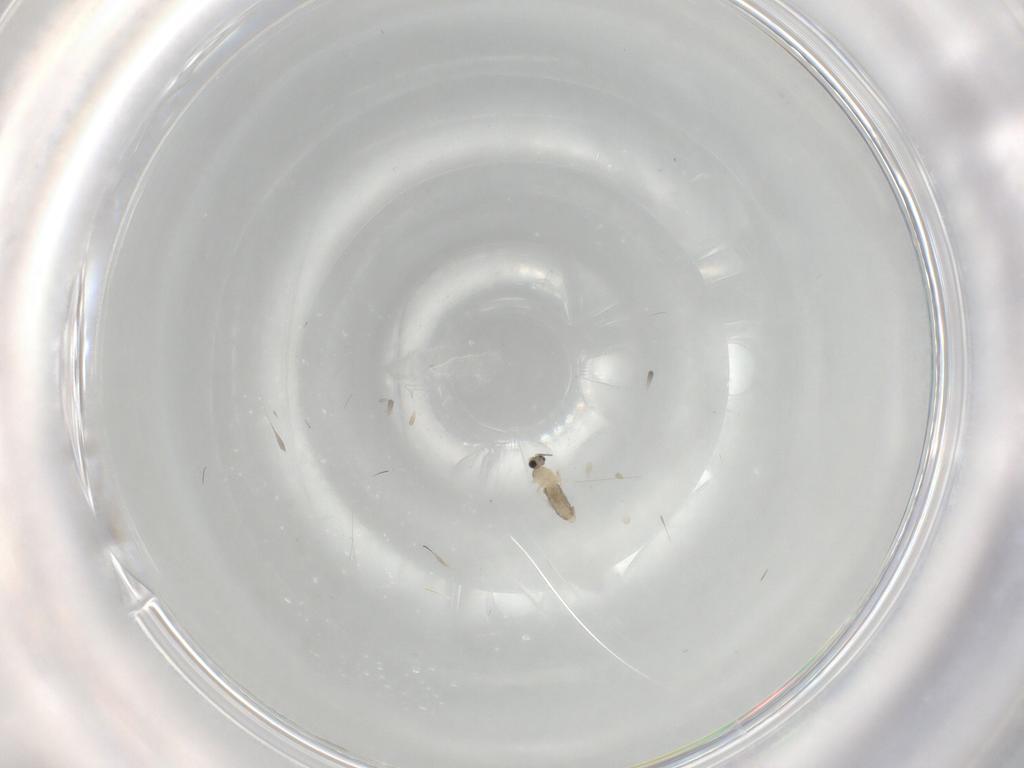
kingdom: Animalia
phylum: Arthropoda
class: Insecta
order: Diptera
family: Cecidomyiidae
